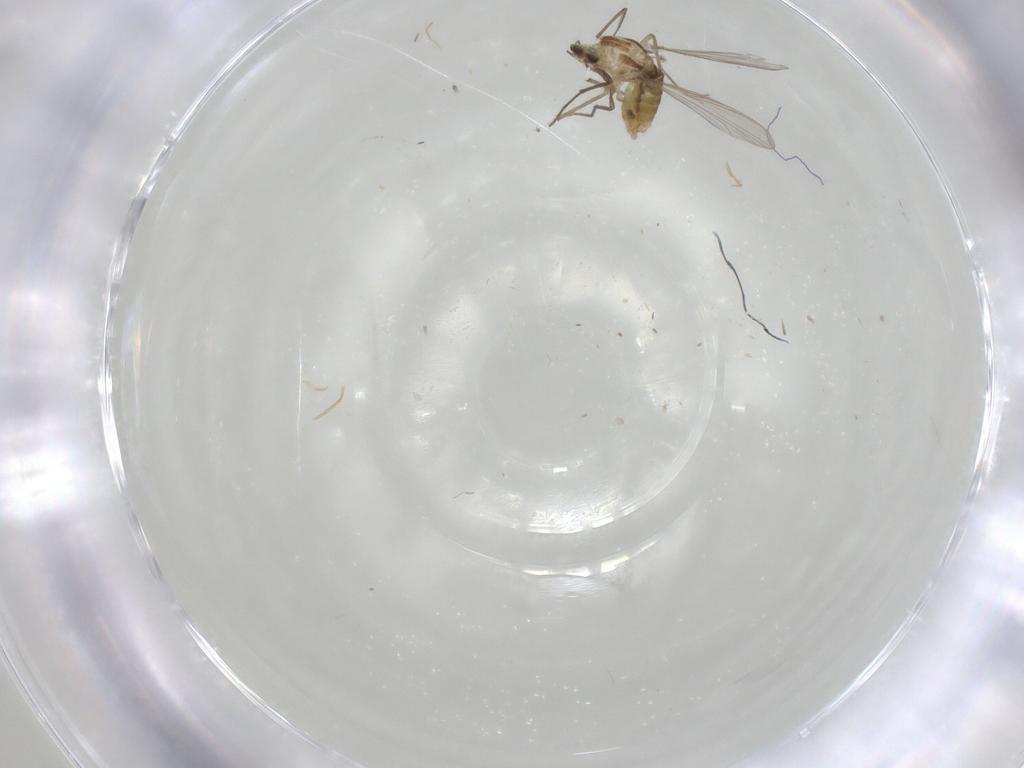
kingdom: Animalia
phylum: Arthropoda
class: Insecta
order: Diptera
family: Chironomidae
